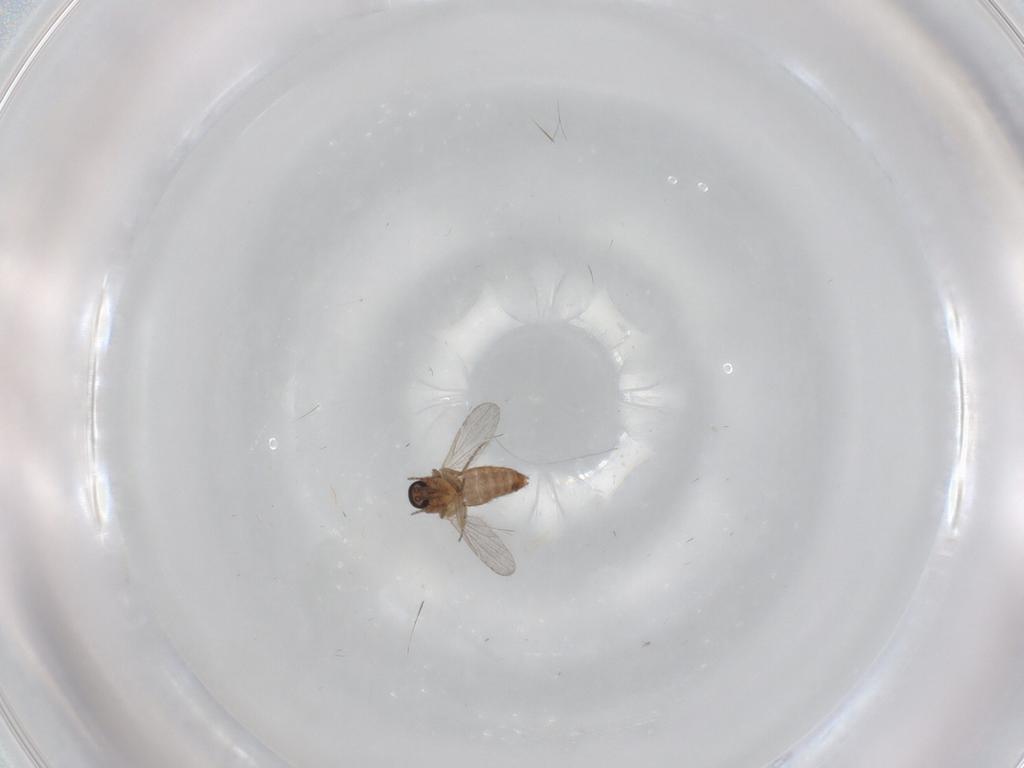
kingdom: Animalia
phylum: Arthropoda
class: Insecta
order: Diptera
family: Ceratopogonidae
